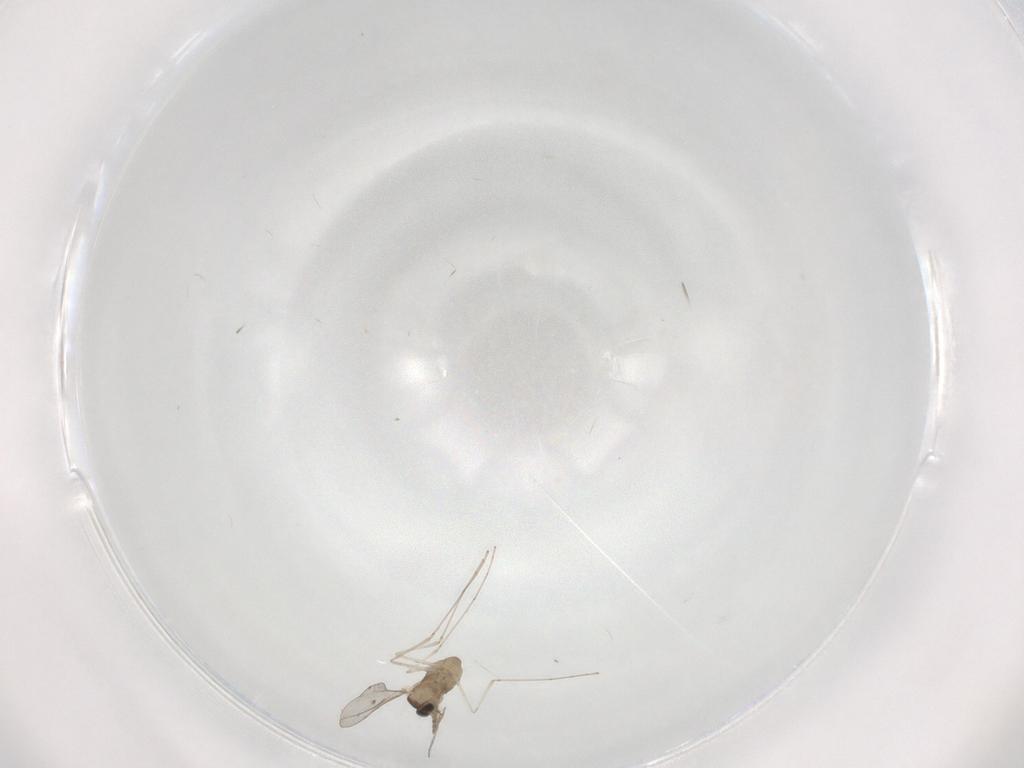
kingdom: Animalia
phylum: Arthropoda
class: Insecta
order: Diptera
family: Cecidomyiidae
